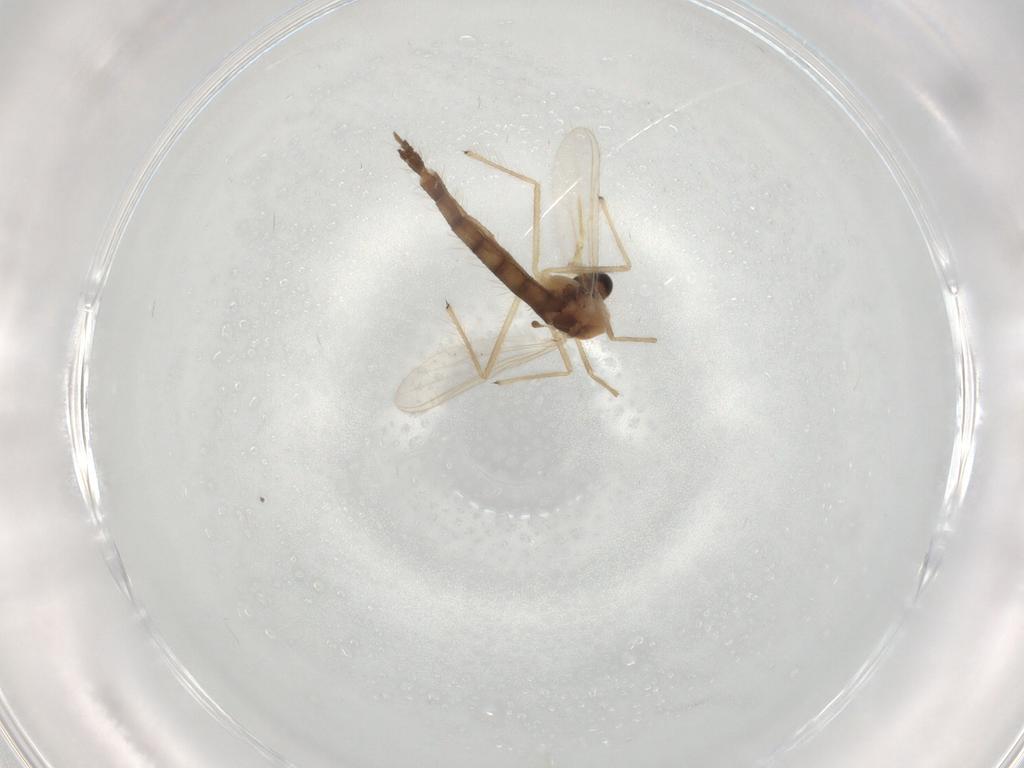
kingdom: Animalia
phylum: Arthropoda
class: Insecta
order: Diptera
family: Chironomidae
